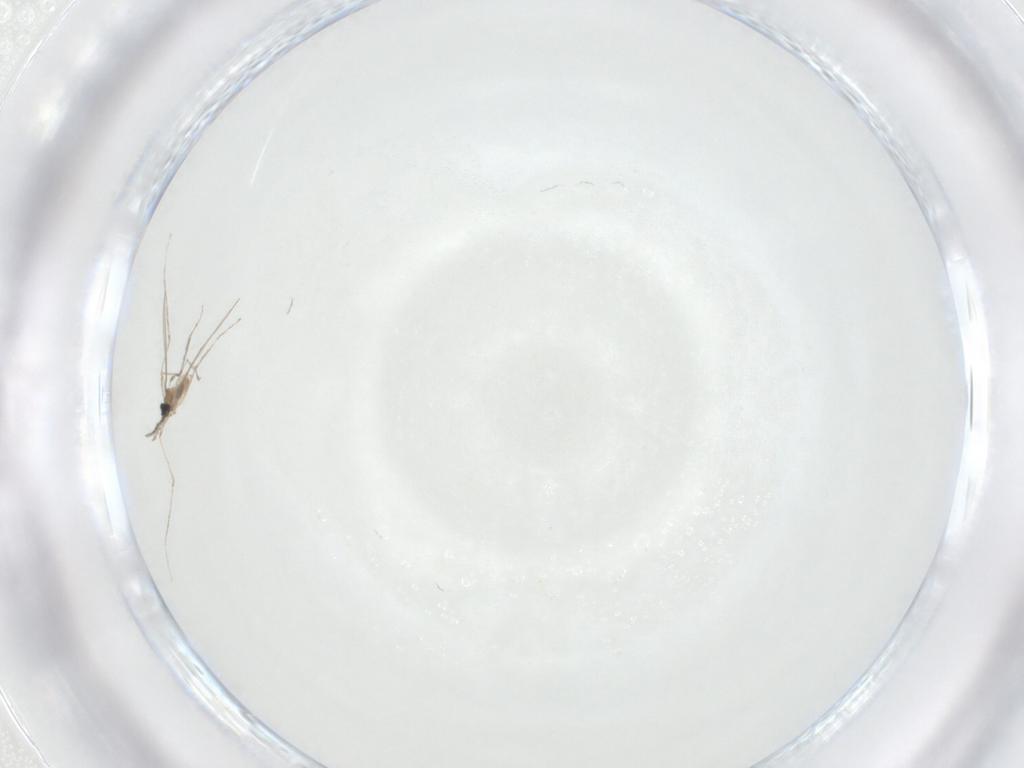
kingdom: Animalia
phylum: Arthropoda
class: Insecta
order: Diptera
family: Cecidomyiidae
